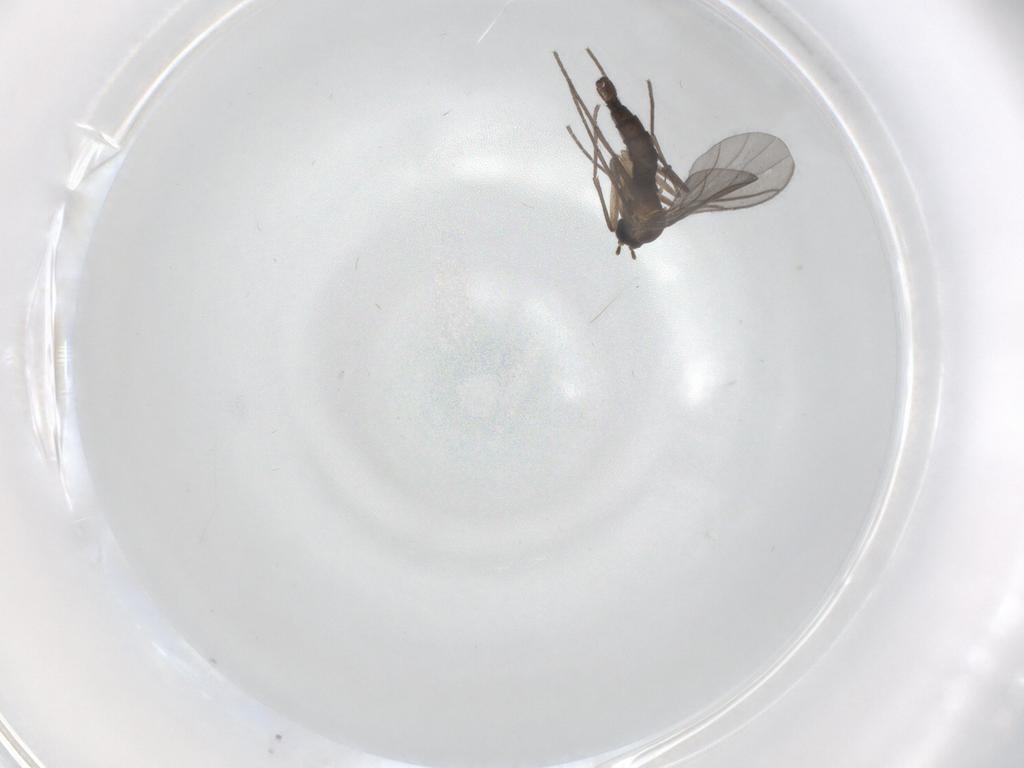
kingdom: Animalia
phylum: Arthropoda
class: Insecta
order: Diptera
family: Sciaridae
